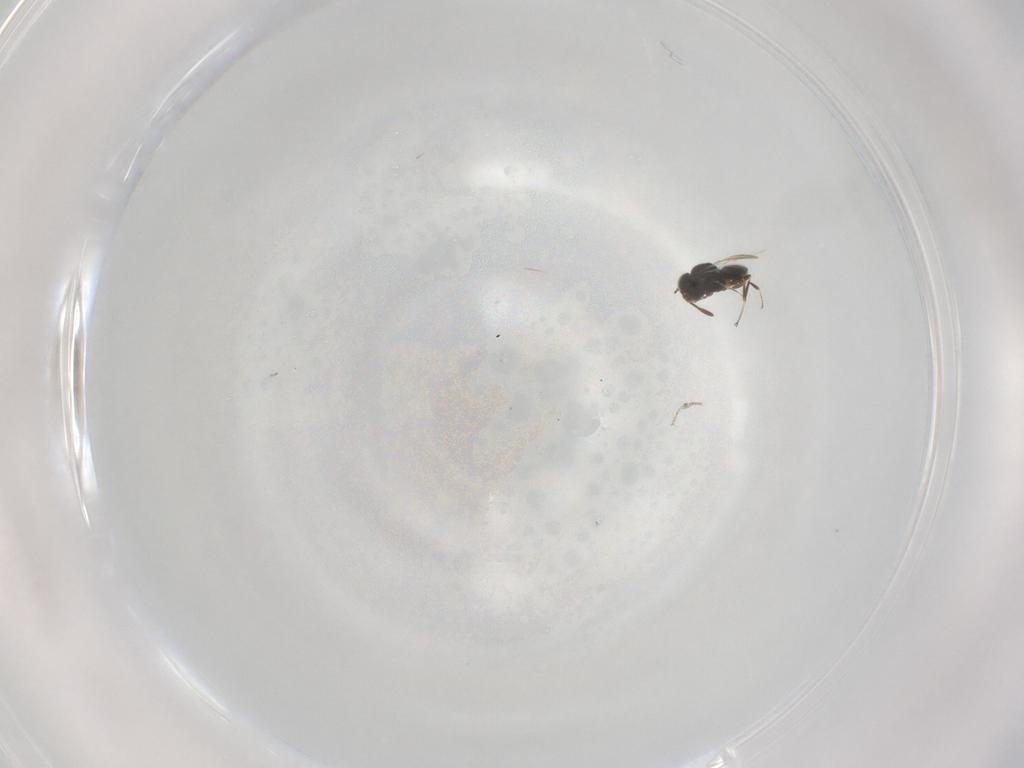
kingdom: Animalia
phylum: Arthropoda
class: Insecta
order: Hymenoptera
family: Scelionidae
